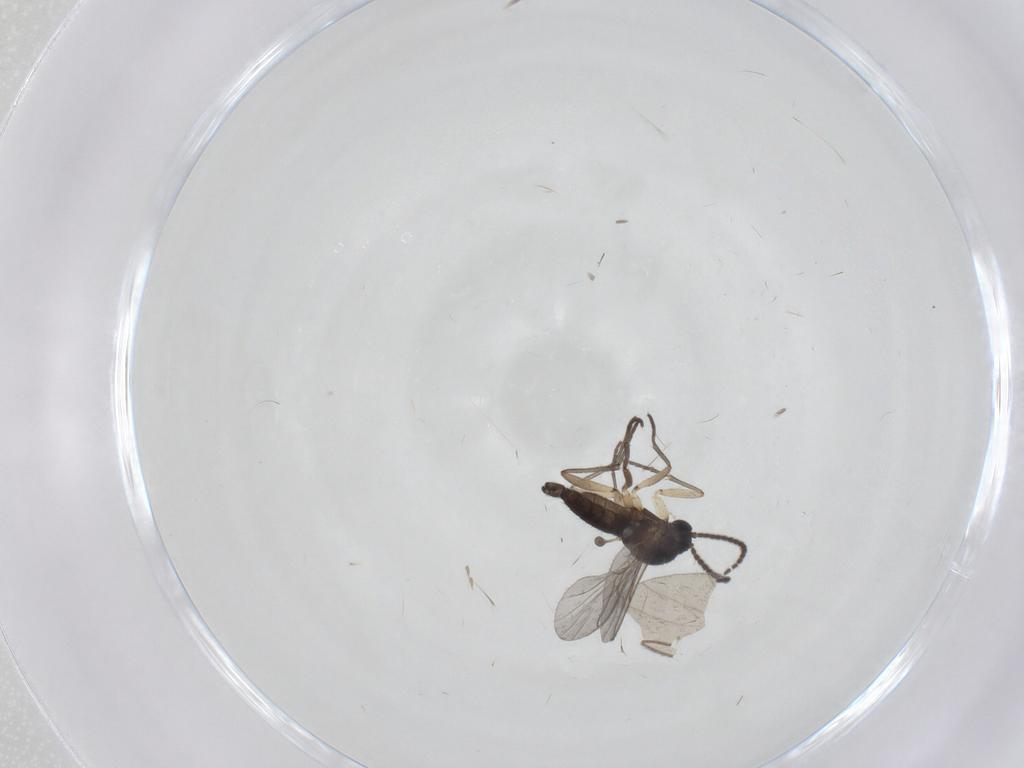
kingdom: Animalia
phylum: Arthropoda
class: Insecta
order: Diptera
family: Sciaridae
